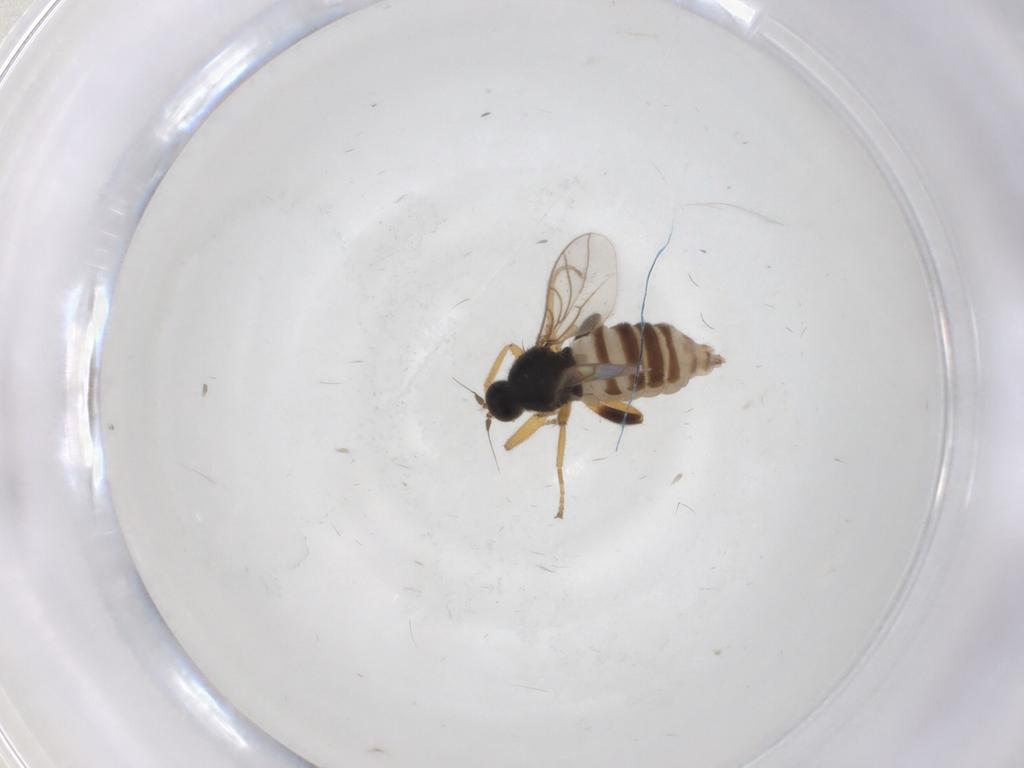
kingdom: Animalia
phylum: Arthropoda
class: Insecta
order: Diptera
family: Hybotidae
